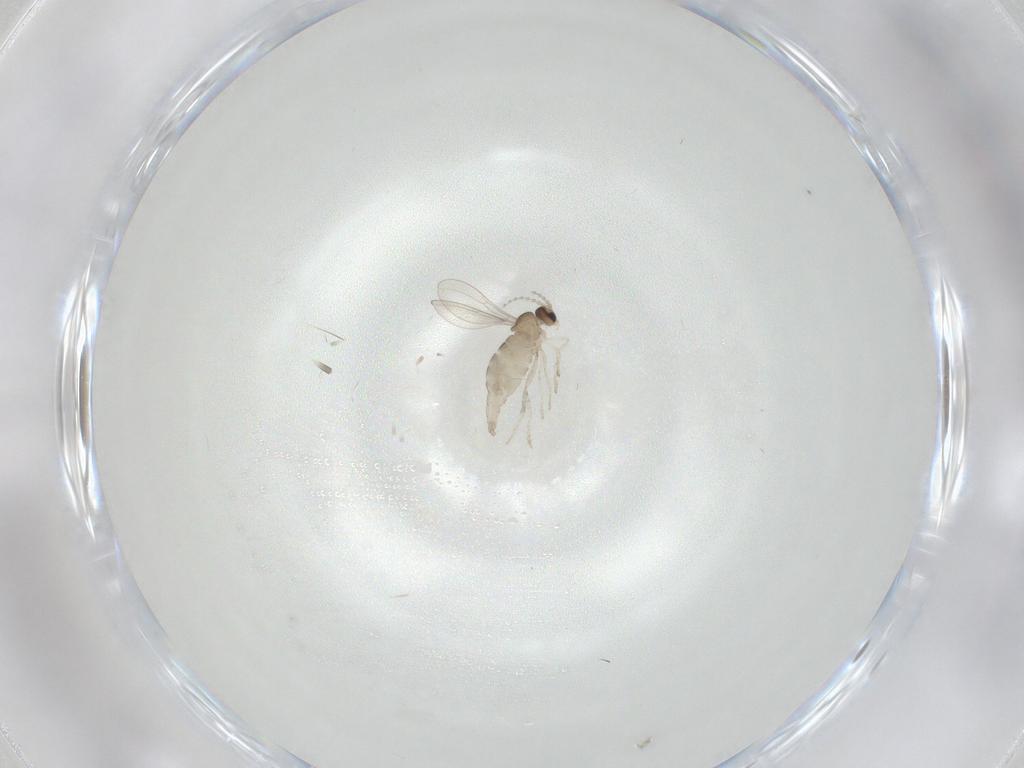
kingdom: Animalia
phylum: Arthropoda
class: Insecta
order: Diptera
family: Cecidomyiidae
